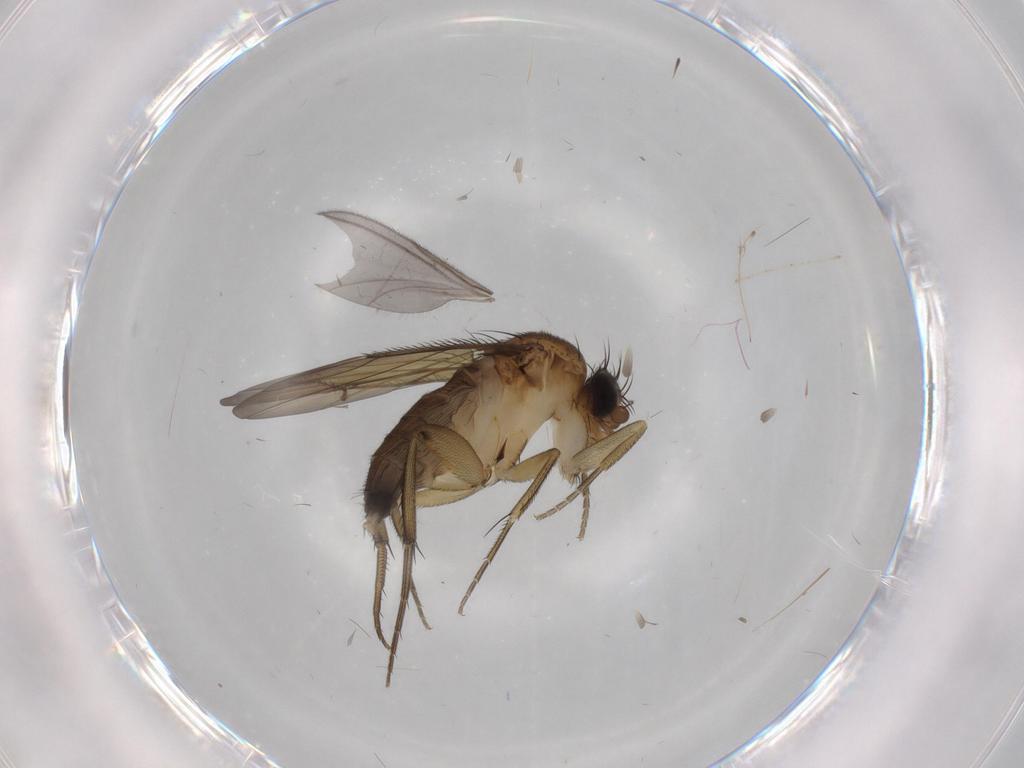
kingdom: Animalia
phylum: Arthropoda
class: Insecta
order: Diptera
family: Phoridae
